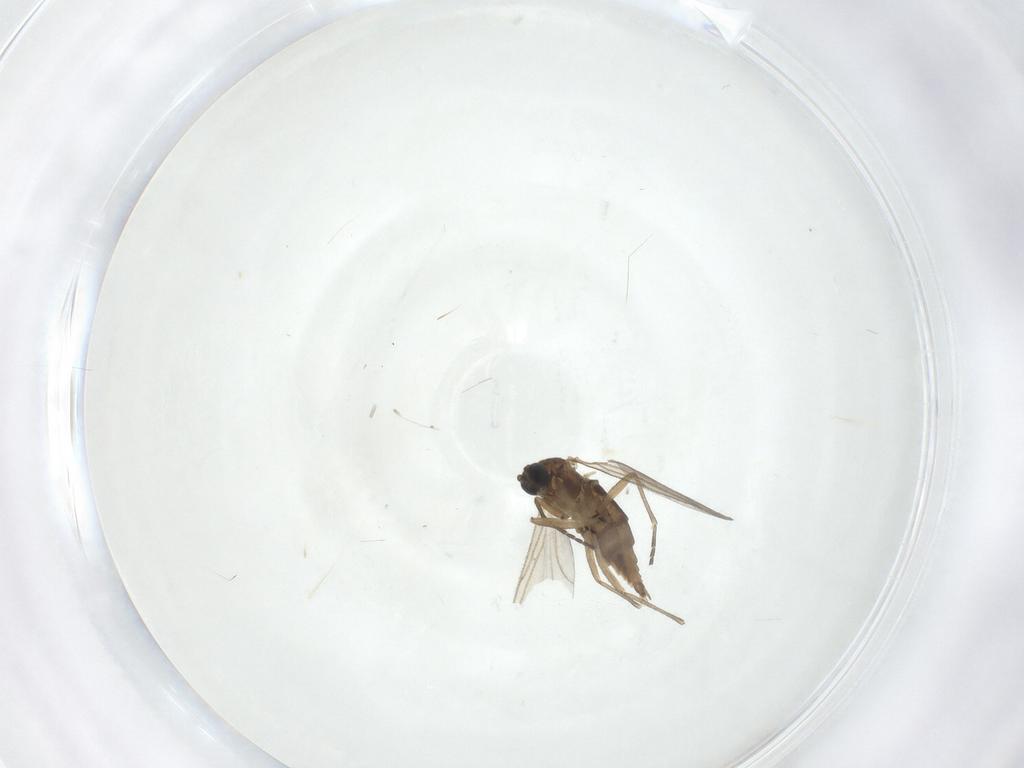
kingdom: Animalia
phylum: Arthropoda
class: Insecta
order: Diptera
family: Sciaridae
